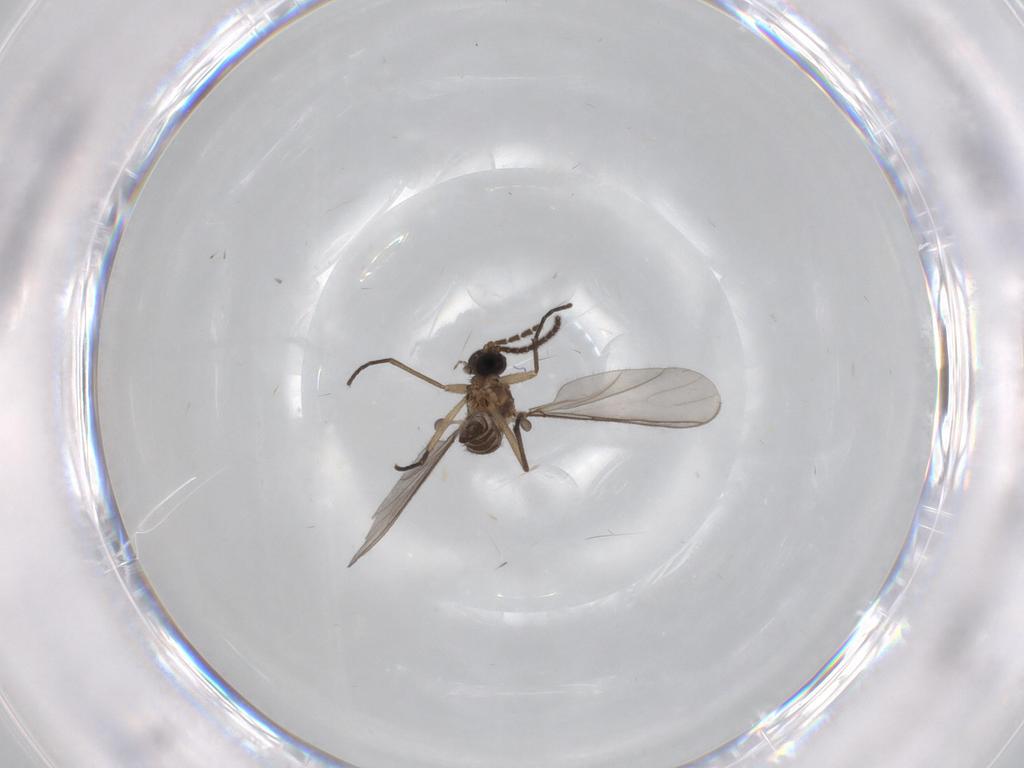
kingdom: Animalia
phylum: Arthropoda
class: Insecta
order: Diptera
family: Sciaridae
